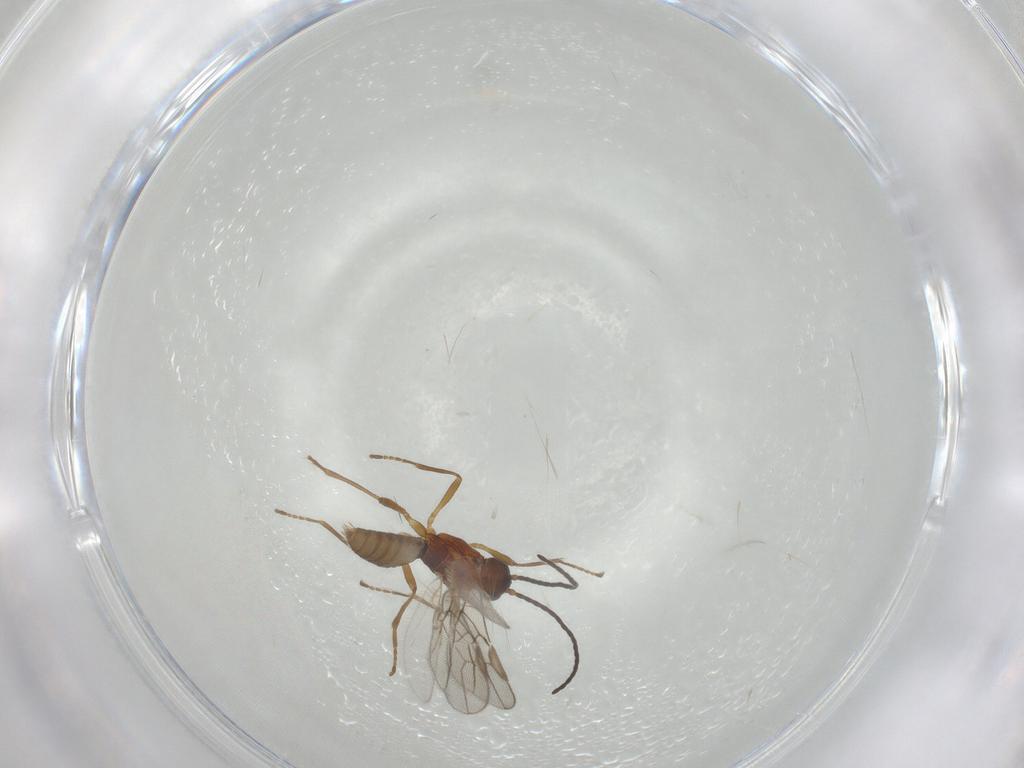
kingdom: Animalia
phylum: Arthropoda
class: Insecta
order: Hymenoptera
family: Braconidae
